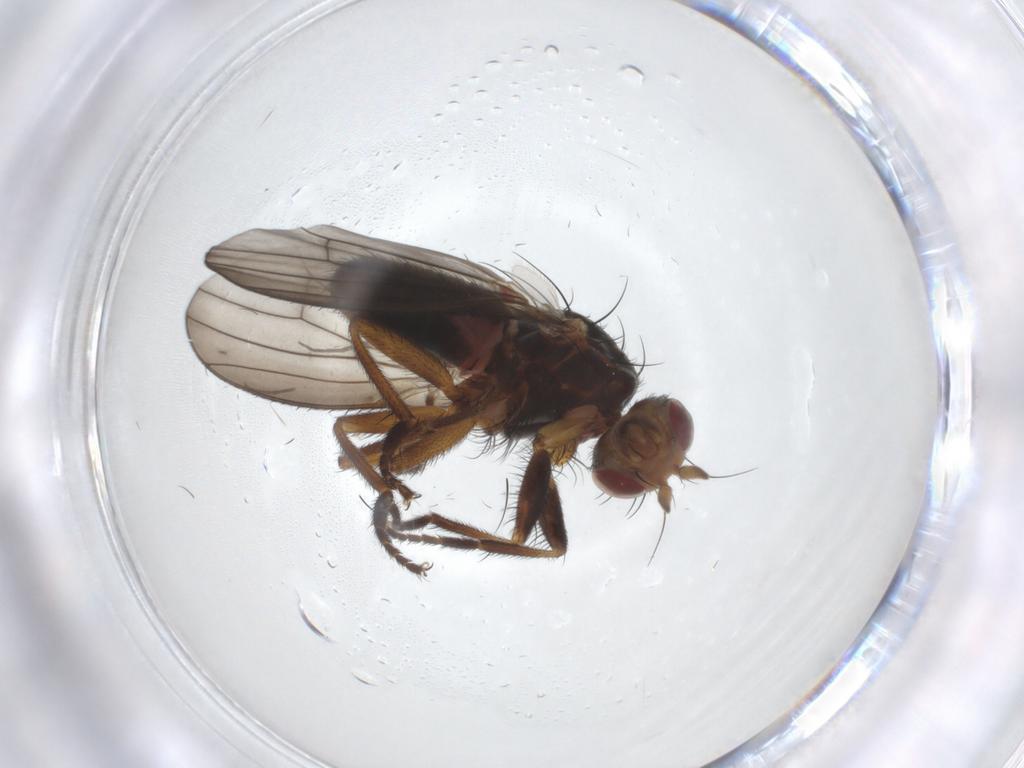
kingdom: Animalia
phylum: Arthropoda
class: Insecta
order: Diptera
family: Heleomyzidae
